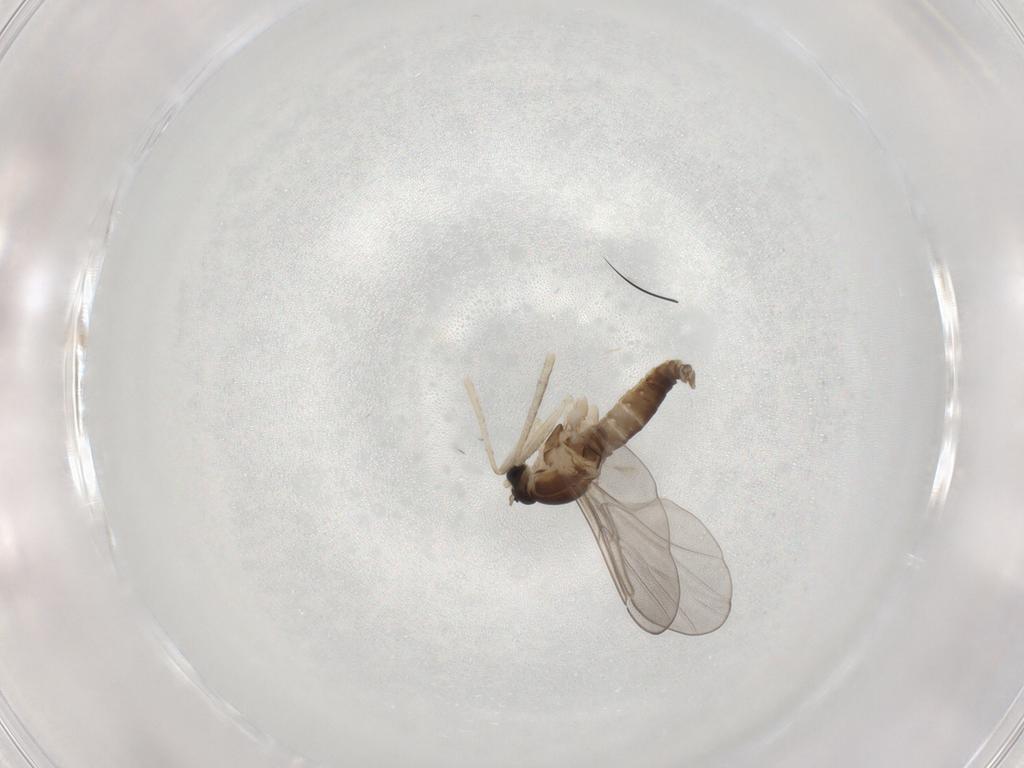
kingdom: Animalia
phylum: Arthropoda
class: Insecta
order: Diptera
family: Cecidomyiidae
